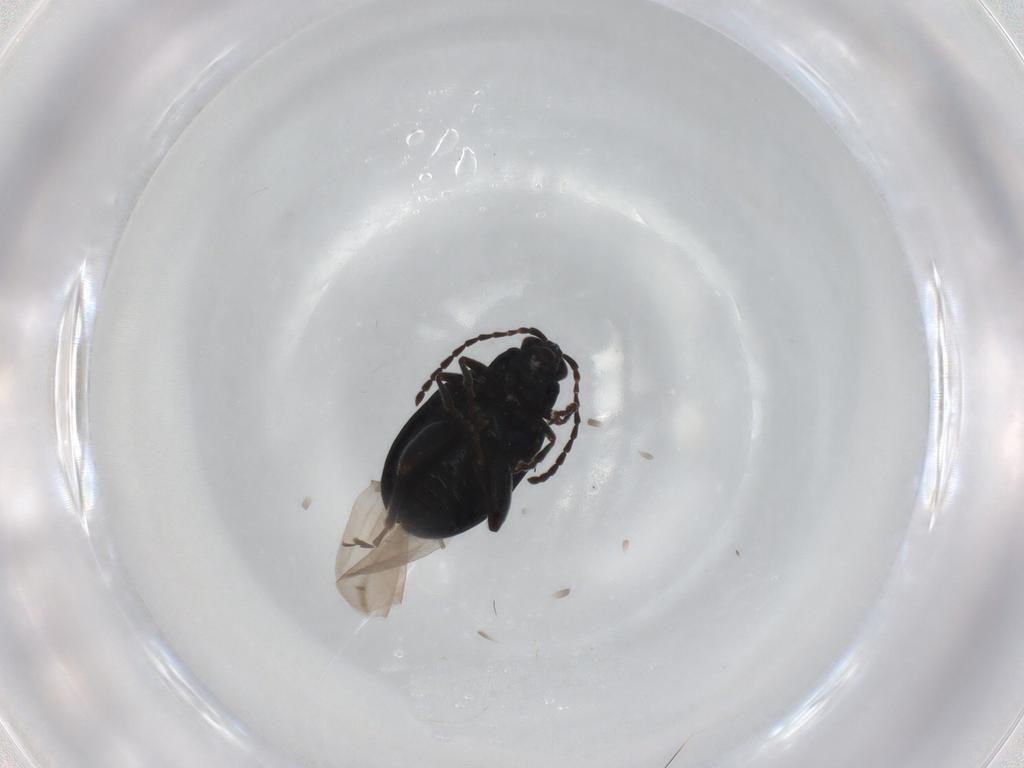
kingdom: Animalia
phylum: Arthropoda
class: Insecta
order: Coleoptera
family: Chrysomelidae
